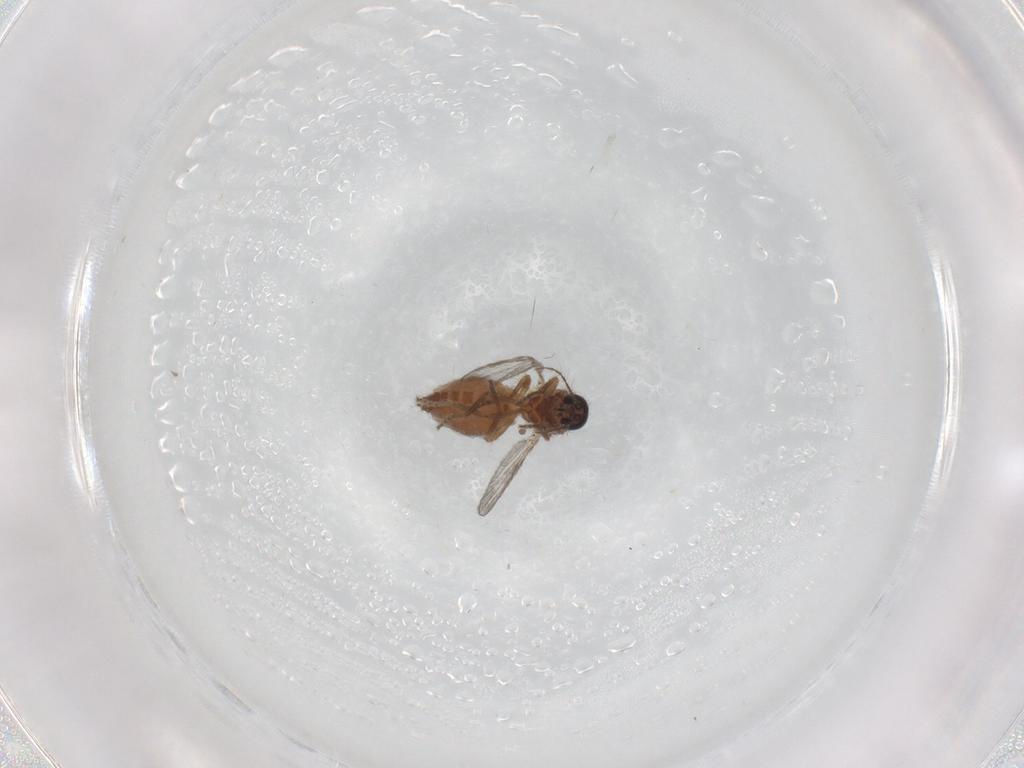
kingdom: Animalia
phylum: Arthropoda
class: Insecta
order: Diptera
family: Ceratopogonidae
